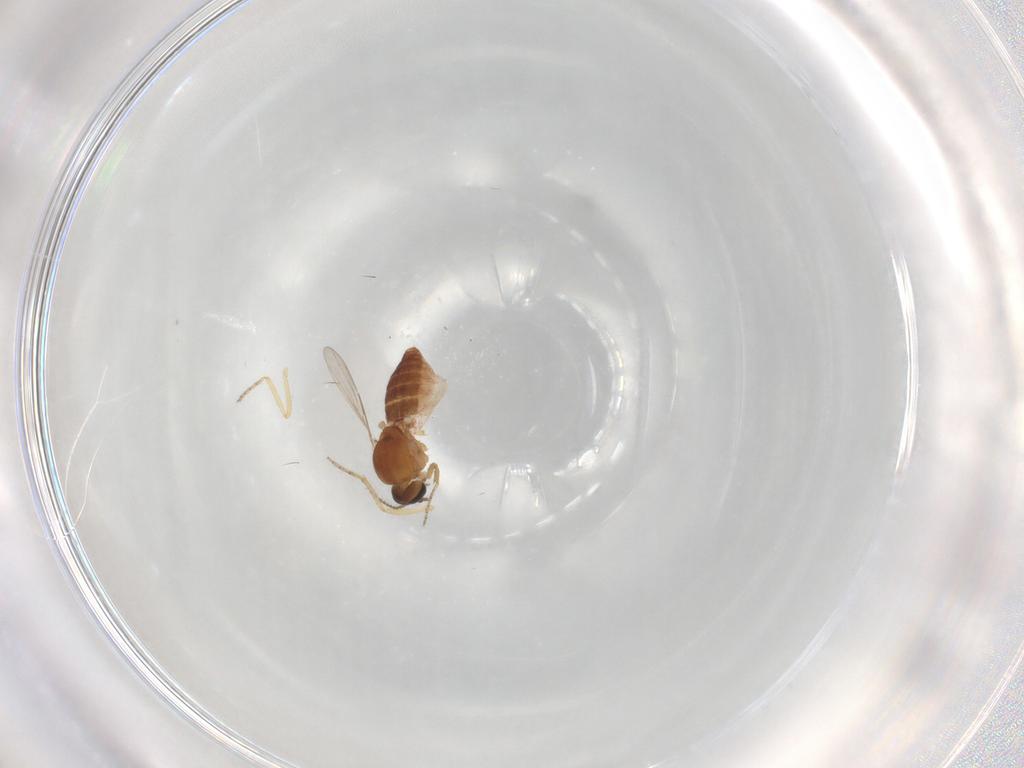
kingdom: Animalia
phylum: Arthropoda
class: Insecta
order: Diptera
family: Ceratopogonidae
